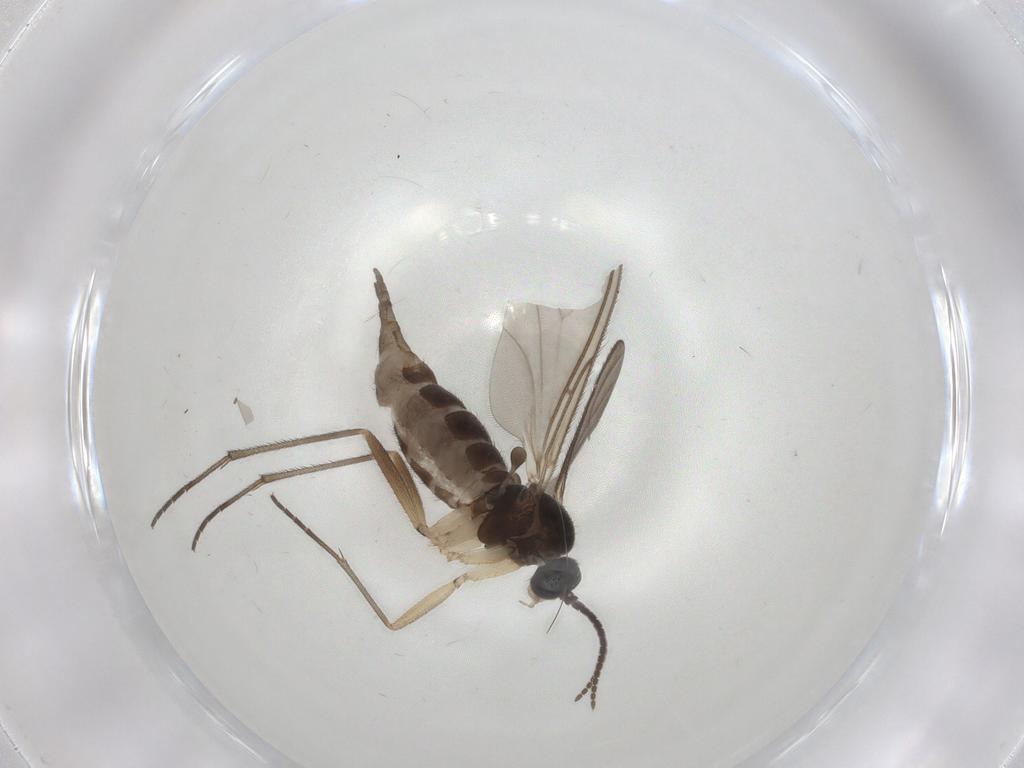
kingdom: Animalia
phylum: Arthropoda
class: Insecta
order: Diptera
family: Sciaridae
